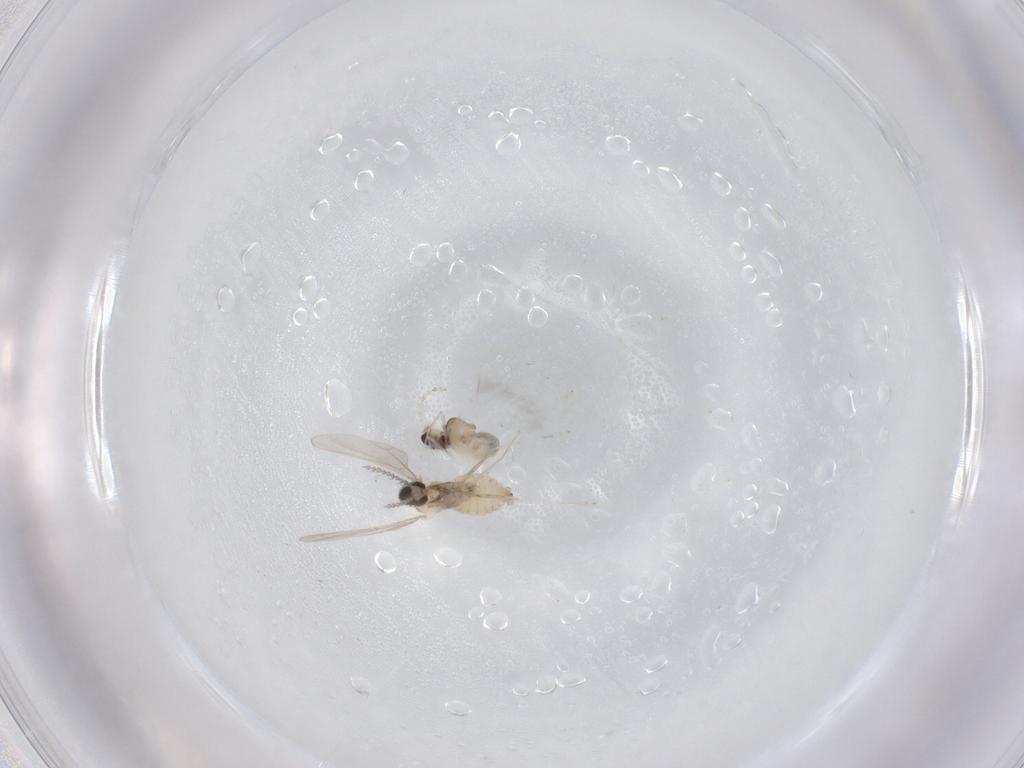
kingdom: Animalia
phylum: Arthropoda
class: Insecta
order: Diptera
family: Cecidomyiidae
